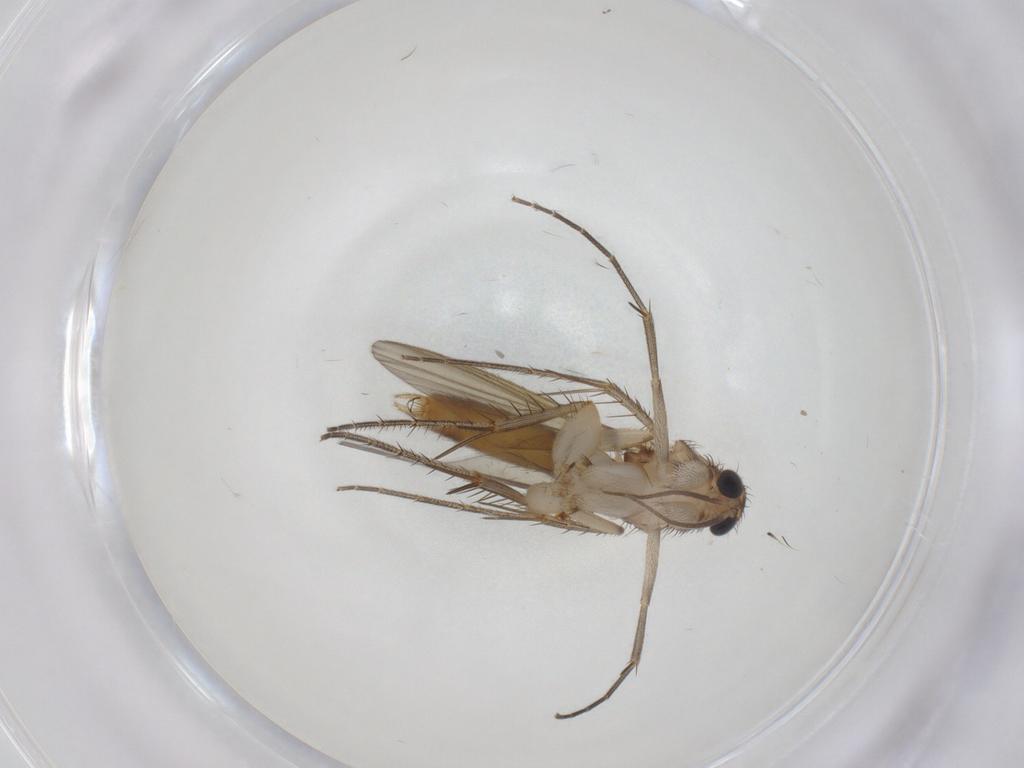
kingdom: Animalia
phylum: Arthropoda
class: Insecta
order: Diptera
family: Mycetophilidae
